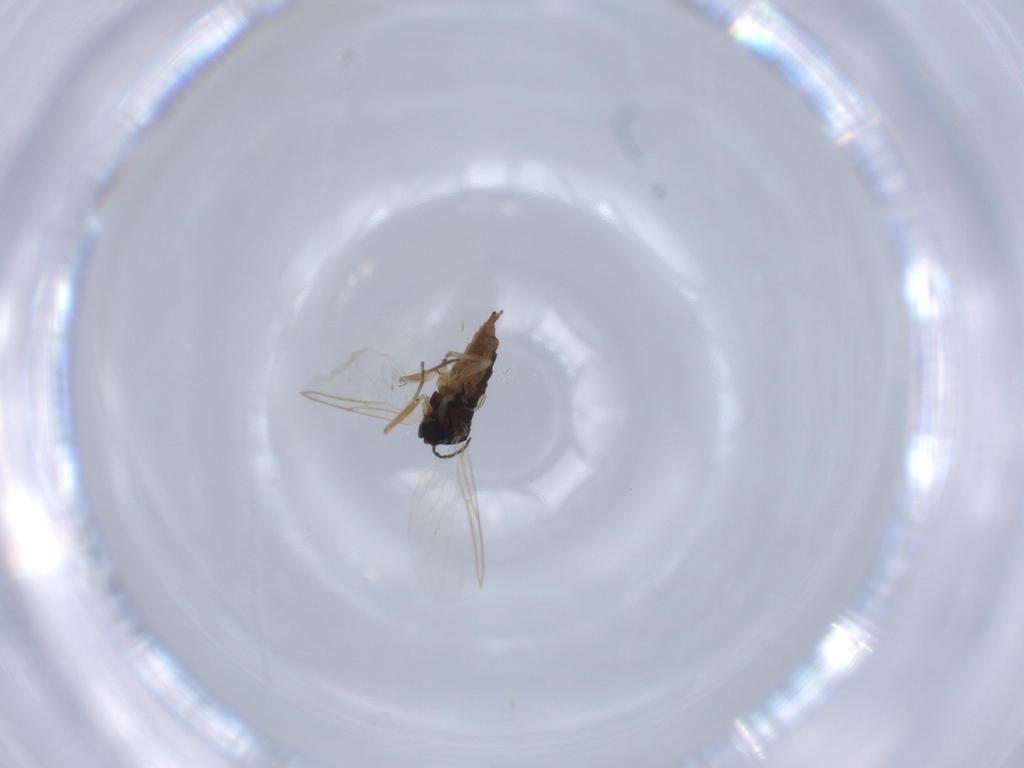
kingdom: Animalia
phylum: Arthropoda
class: Insecta
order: Diptera
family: Sciaridae
